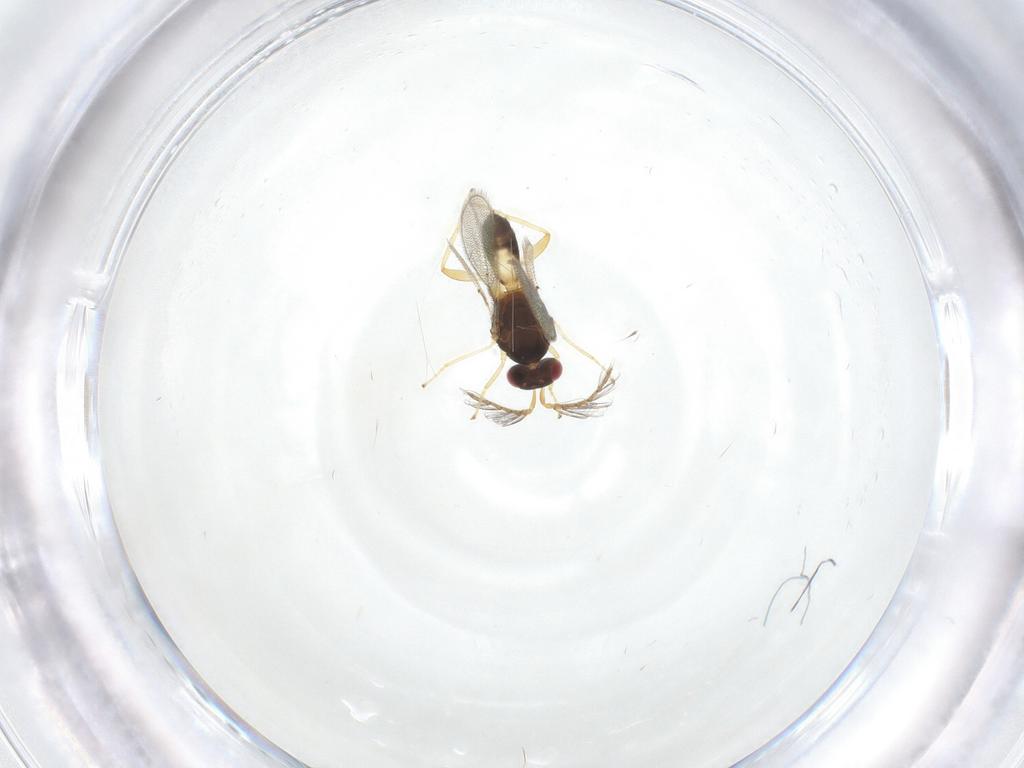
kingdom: Animalia
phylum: Arthropoda
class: Insecta
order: Hymenoptera
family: Eulophidae
